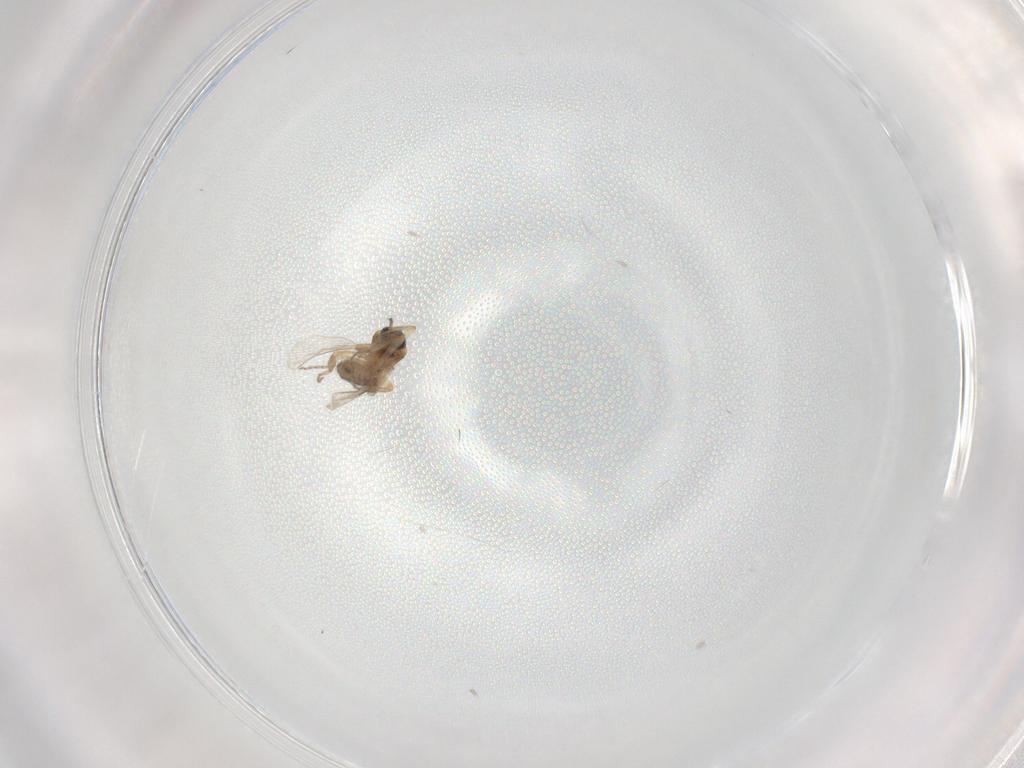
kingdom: Animalia
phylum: Arthropoda
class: Insecta
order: Diptera
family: Ceratopogonidae
